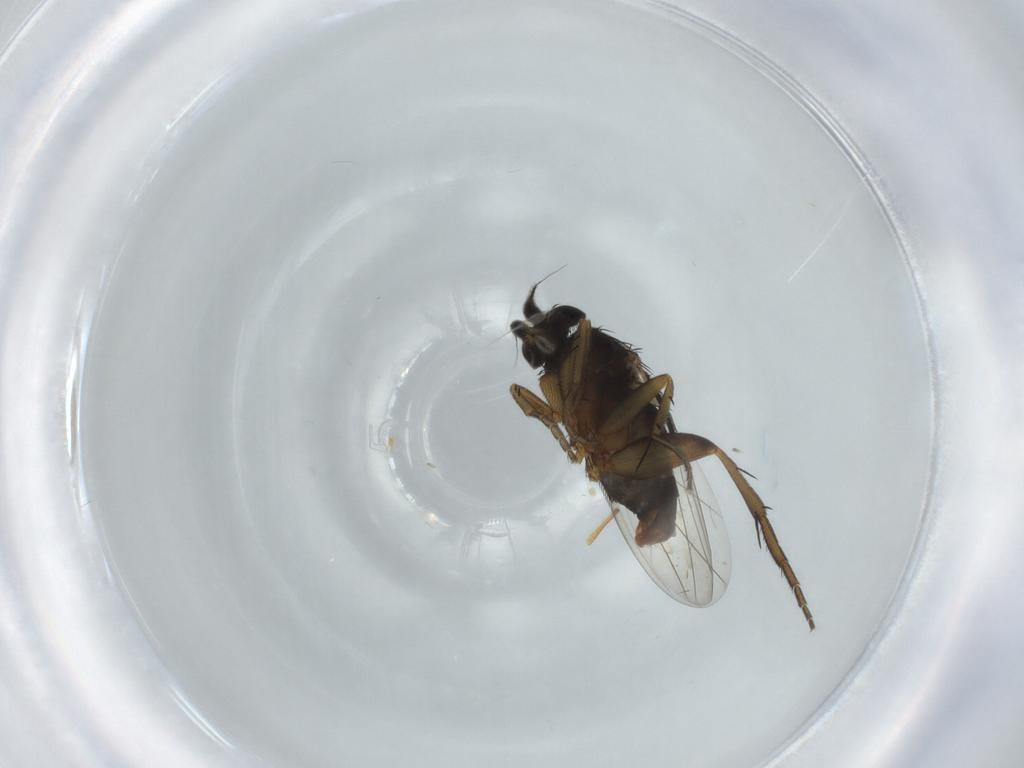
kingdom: Animalia
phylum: Arthropoda
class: Insecta
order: Diptera
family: Phoridae
